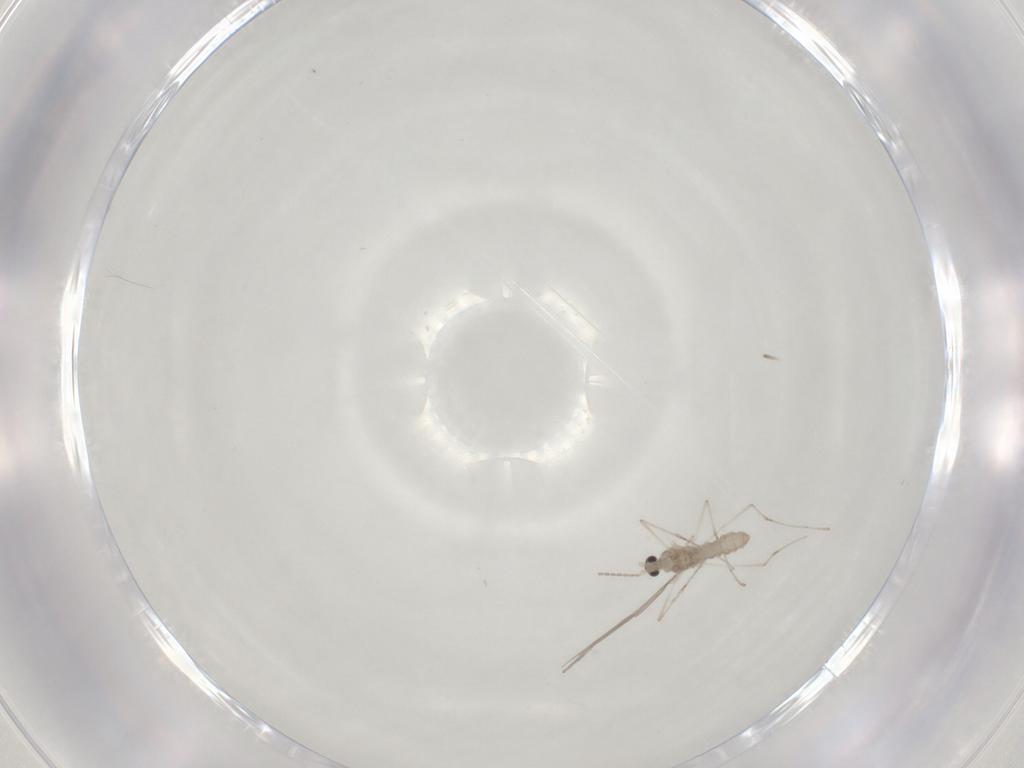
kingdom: Animalia
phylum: Arthropoda
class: Insecta
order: Diptera
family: Cecidomyiidae
